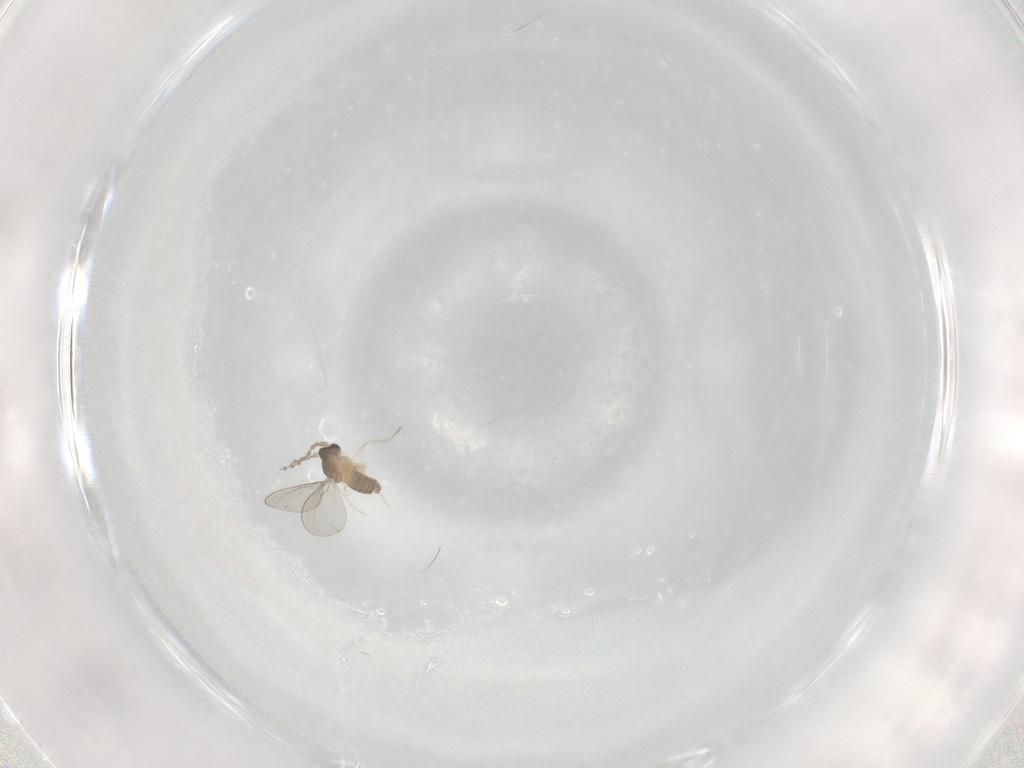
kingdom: Animalia
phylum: Arthropoda
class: Insecta
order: Diptera
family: Cecidomyiidae
